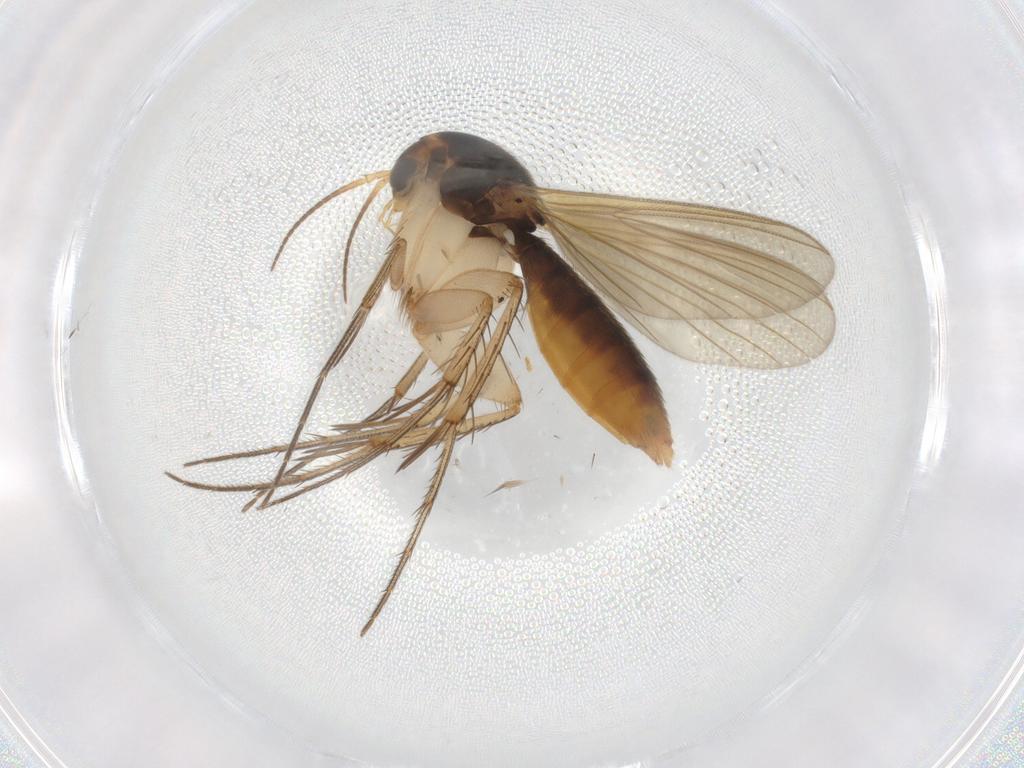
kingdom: Animalia
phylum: Arthropoda
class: Insecta
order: Diptera
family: Mycetophilidae
